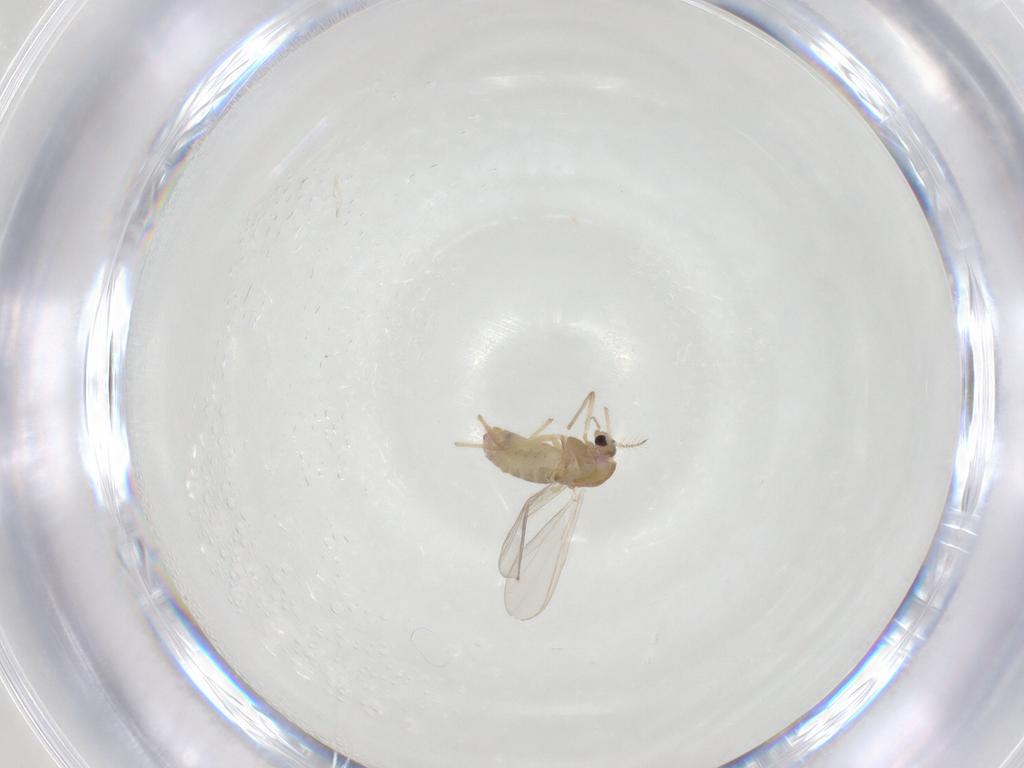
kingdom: Animalia
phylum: Arthropoda
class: Insecta
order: Diptera
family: Chironomidae
